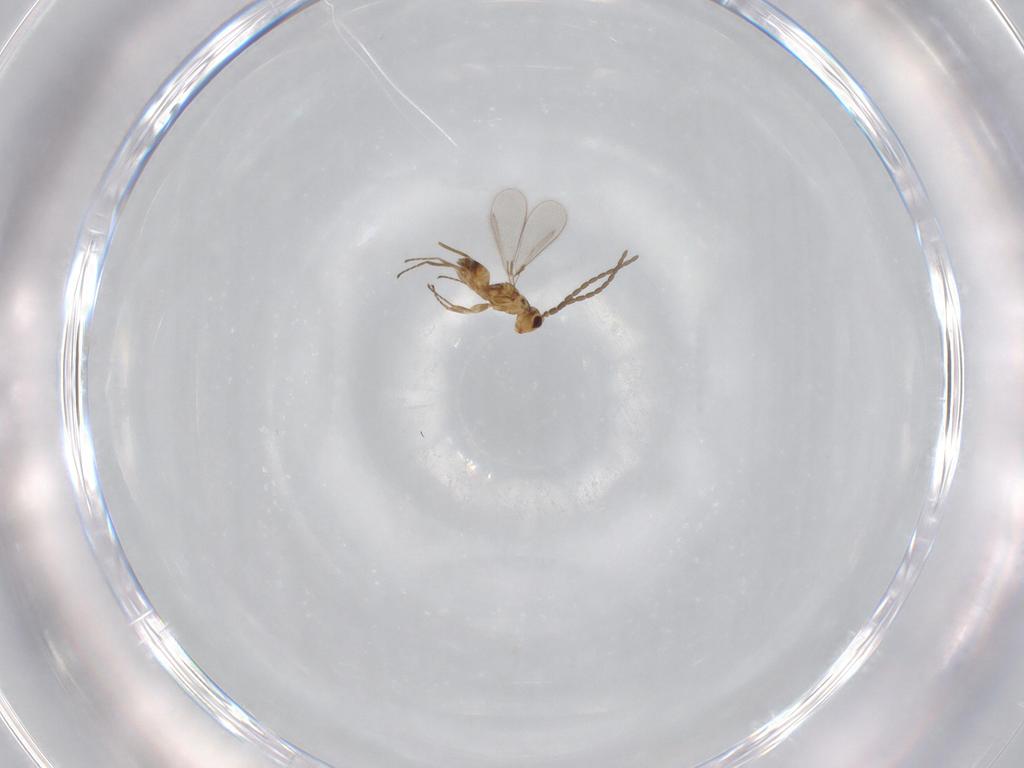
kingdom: Animalia
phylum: Arthropoda
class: Insecta
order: Hymenoptera
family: Mymaridae
